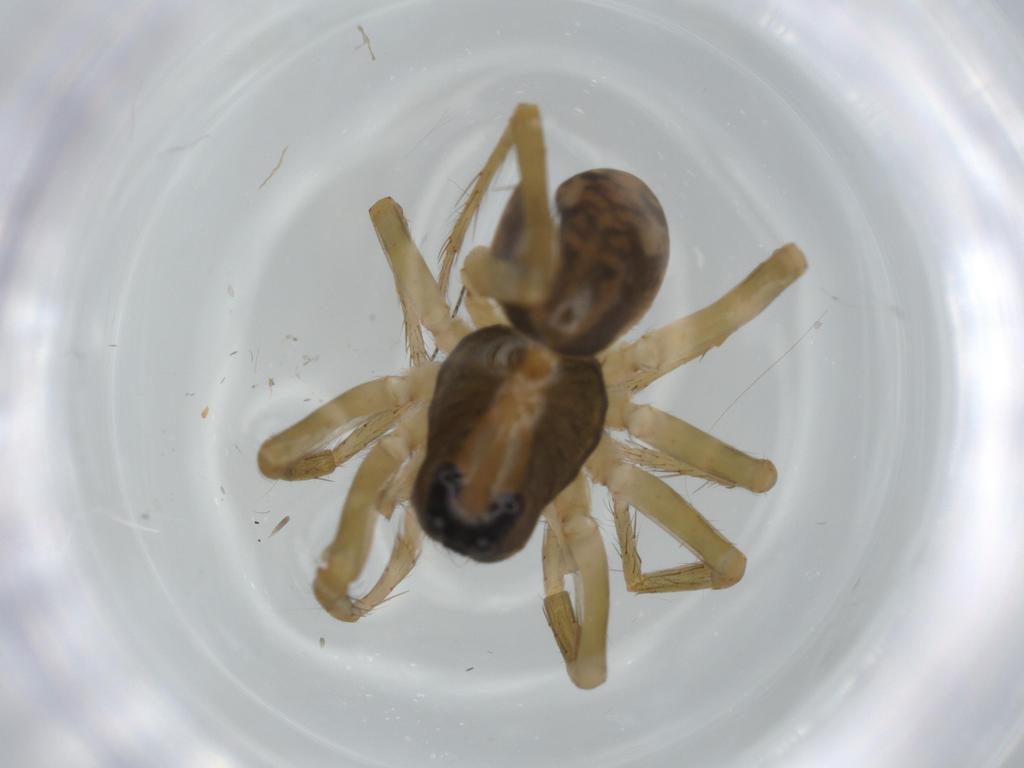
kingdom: Animalia
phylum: Arthropoda
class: Arachnida
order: Araneae
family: Lycosidae
